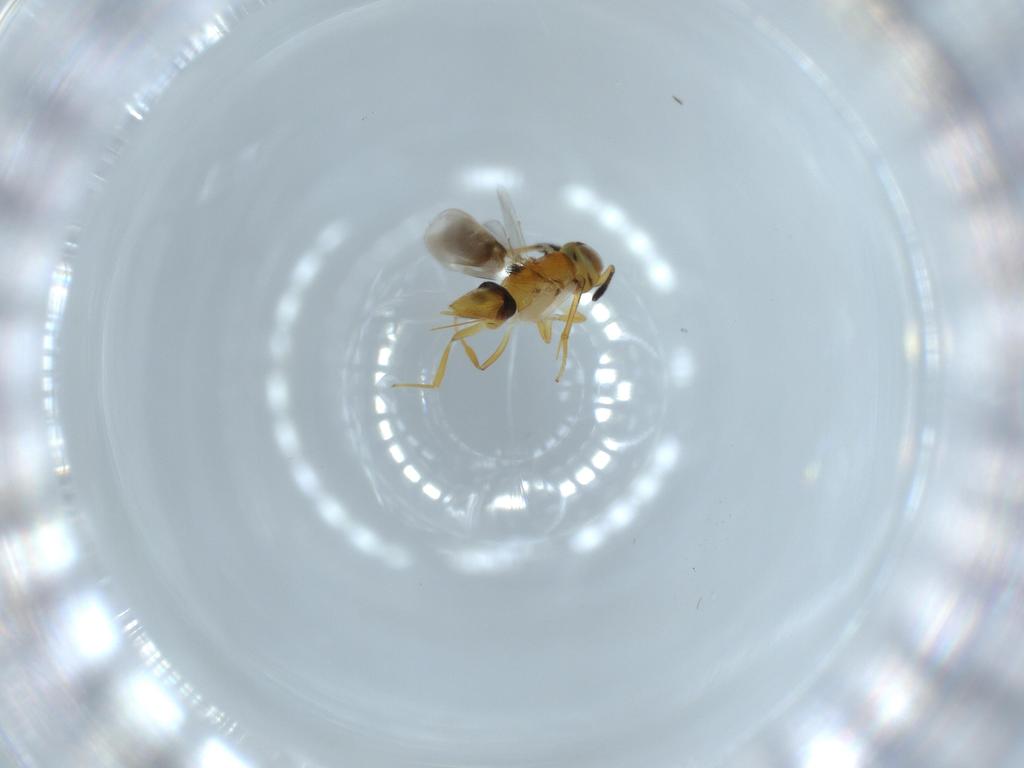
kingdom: Animalia
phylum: Arthropoda
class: Insecta
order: Hymenoptera
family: Encyrtidae
